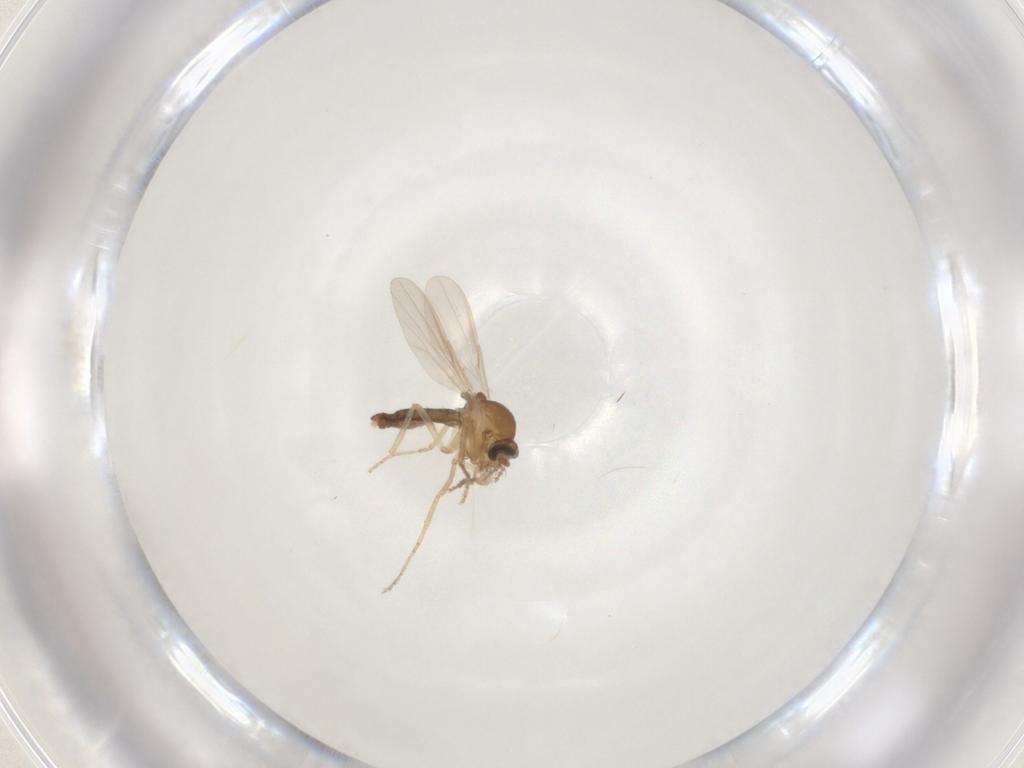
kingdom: Animalia
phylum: Arthropoda
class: Insecta
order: Diptera
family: Ceratopogonidae
